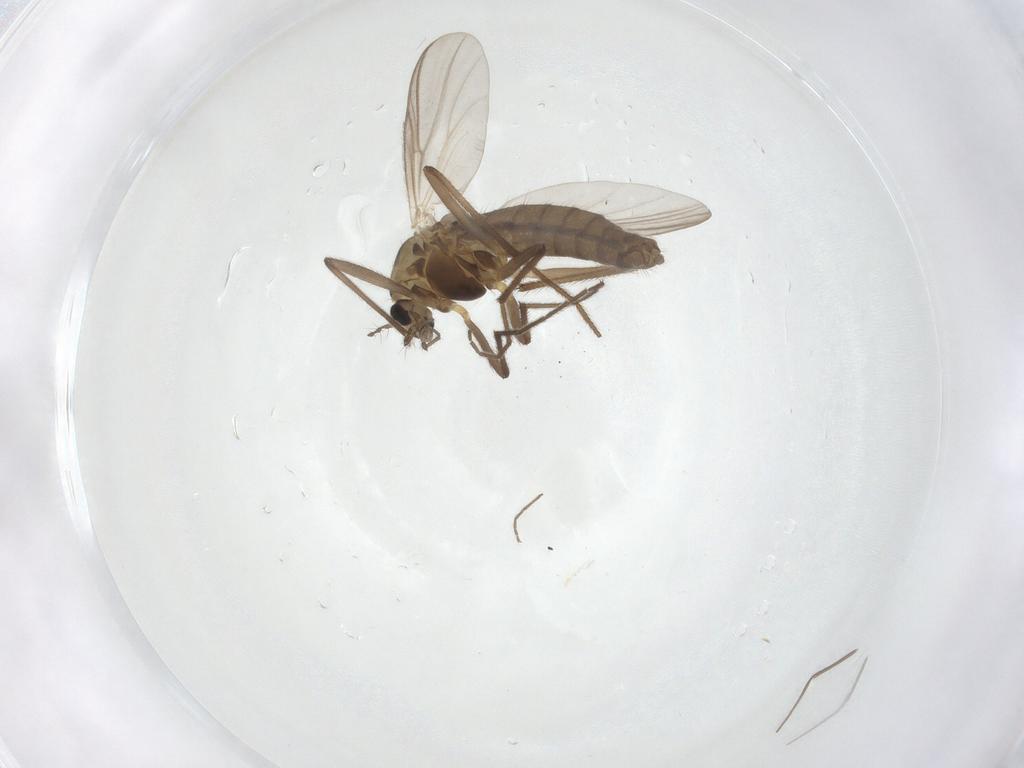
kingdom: Animalia
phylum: Arthropoda
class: Insecta
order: Diptera
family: Chironomidae
